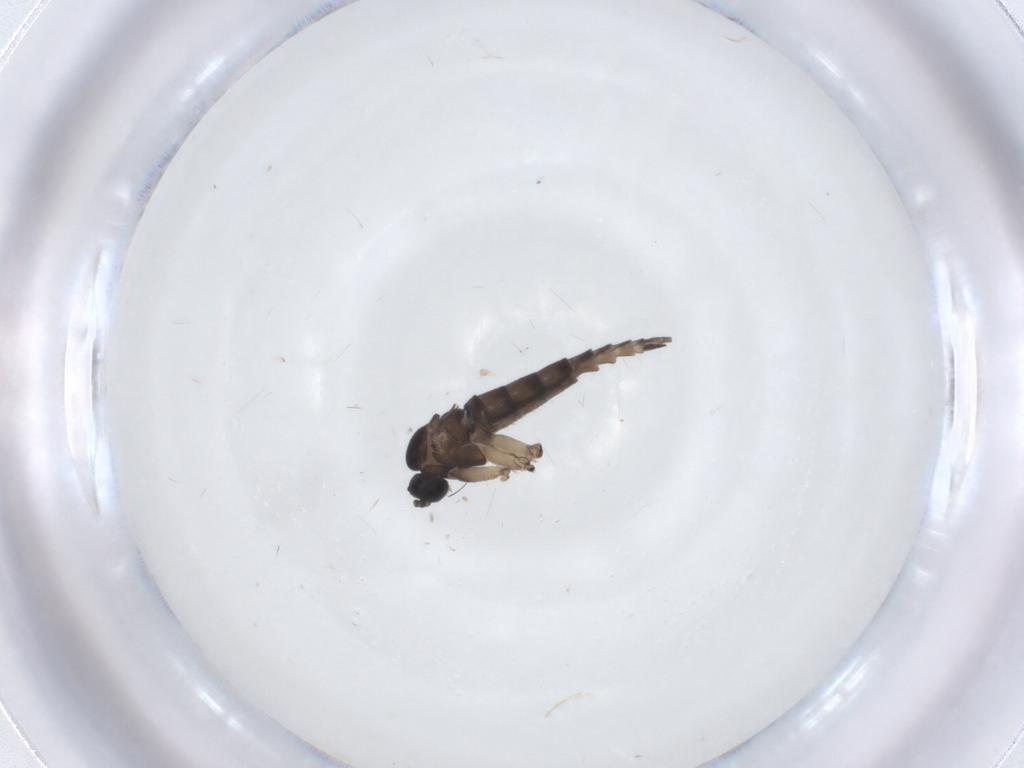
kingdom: Animalia
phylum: Arthropoda
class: Insecta
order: Diptera
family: Sciaridae
